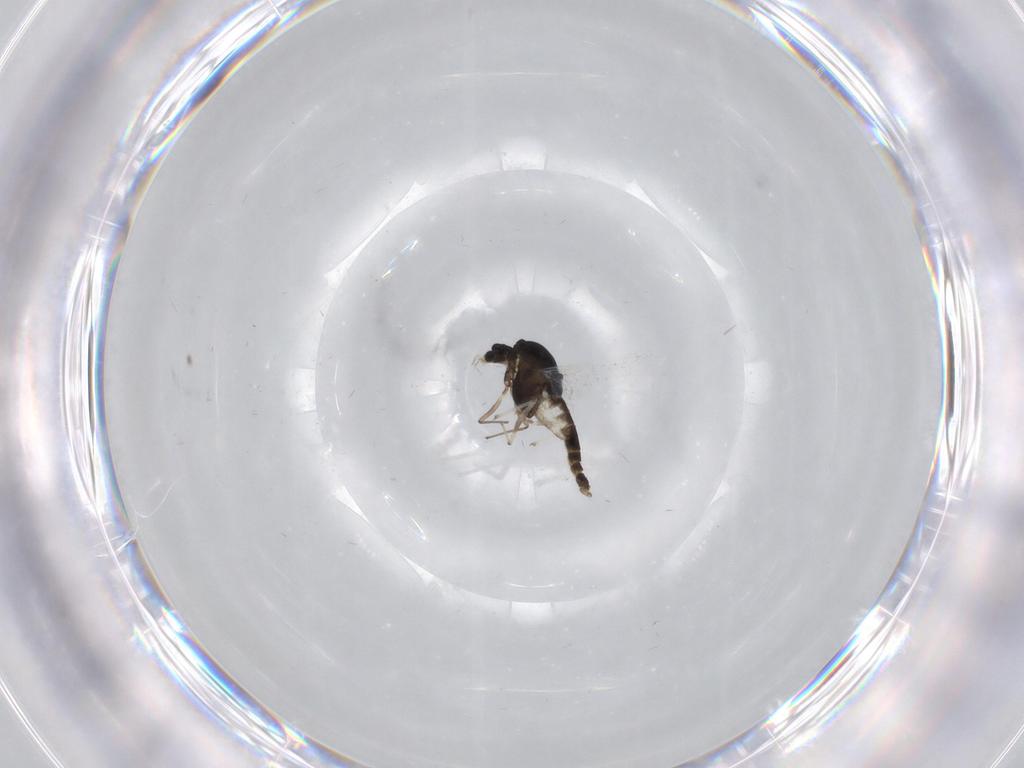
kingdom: Animalia
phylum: Arthropoda
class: Insecta
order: Diptera
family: Chironomidae
